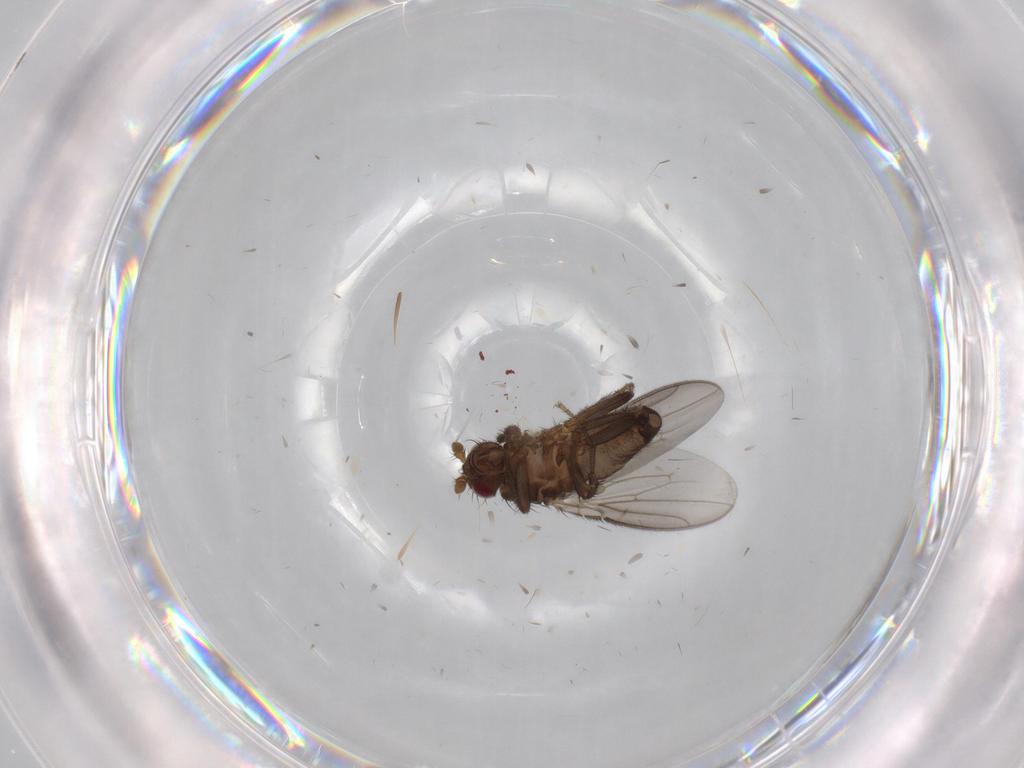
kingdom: Animalia
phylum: Arthropoda
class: Insecta
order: Diptera
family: Sphaeroceridae
